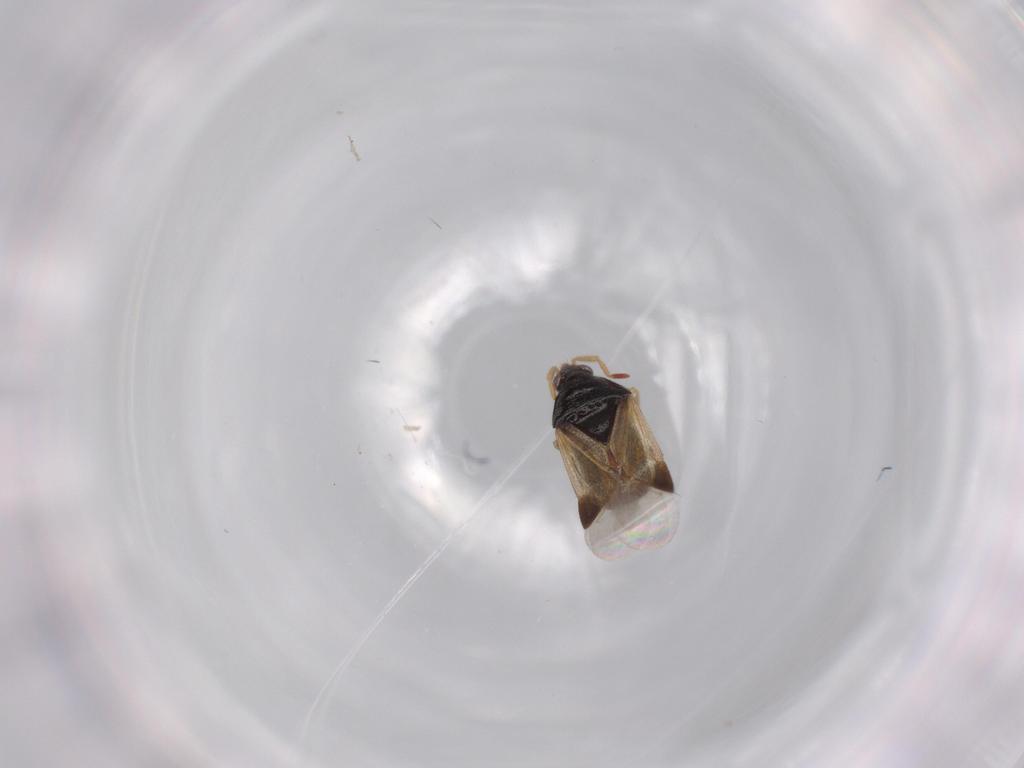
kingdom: Animalia
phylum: Arthropoda
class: Insecta
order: Hemiptera
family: Anthocoridae
